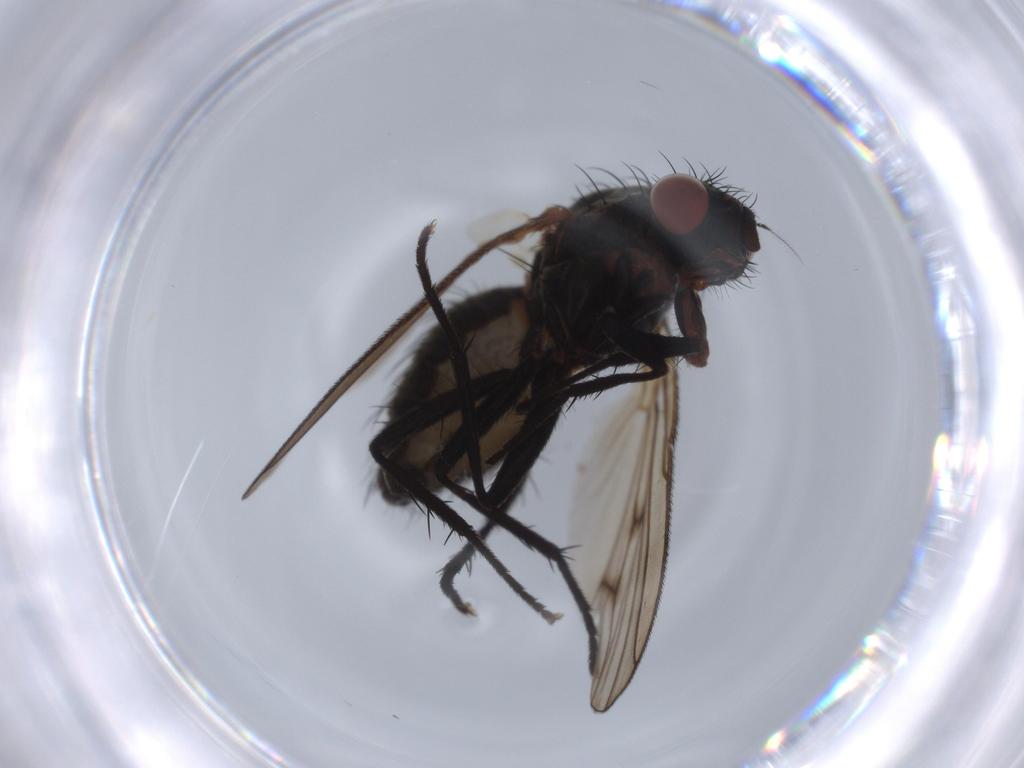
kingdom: Animalia
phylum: Arthropoda
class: Insecta
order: Diptera
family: Anthomyiidae
